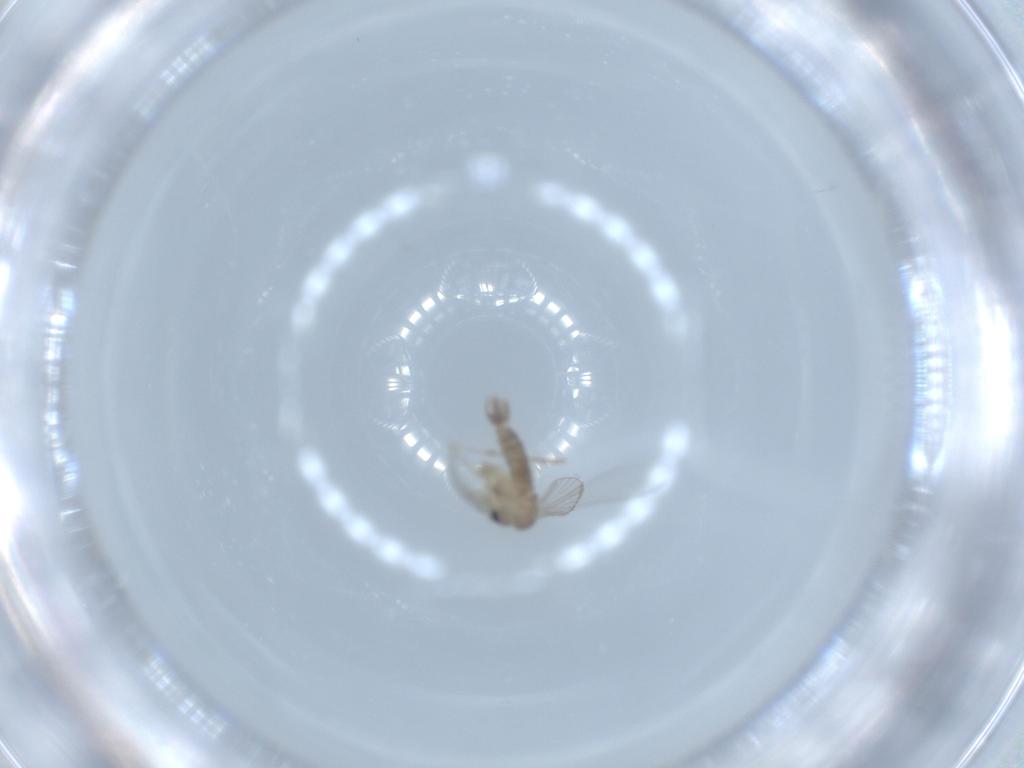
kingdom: Animalia
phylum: Arthropoda
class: Insecta
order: Diptera
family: Psychodidae
